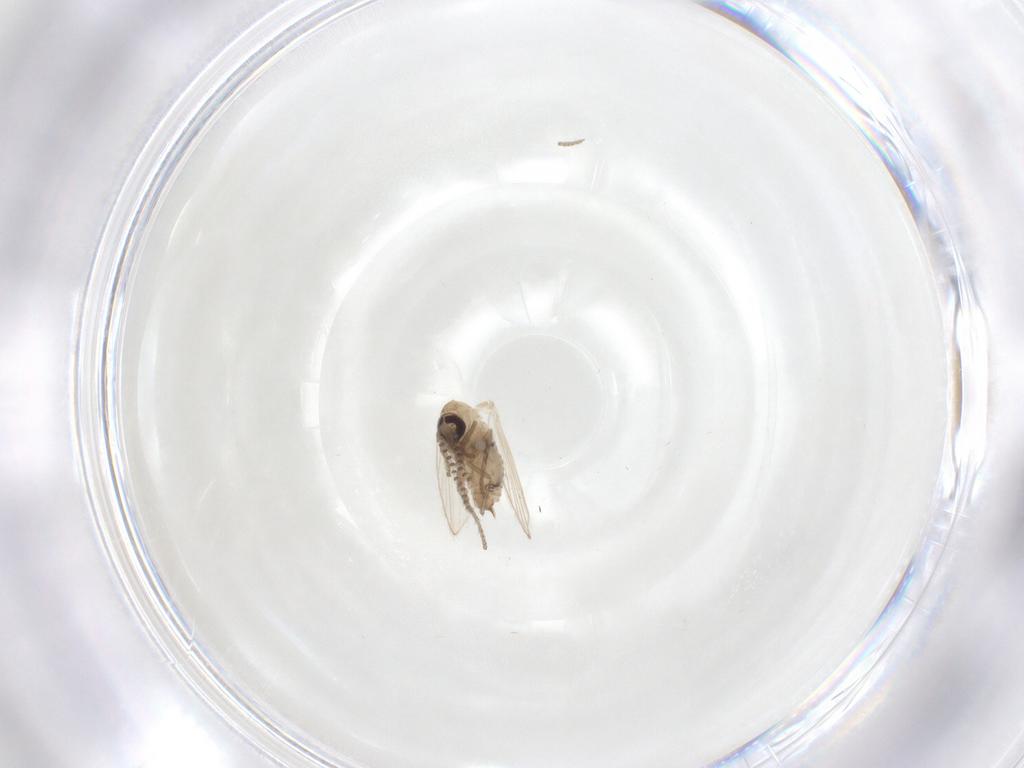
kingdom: Animalia
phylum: Arthropoda
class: Insecta
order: Diptera
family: Psychodidae
